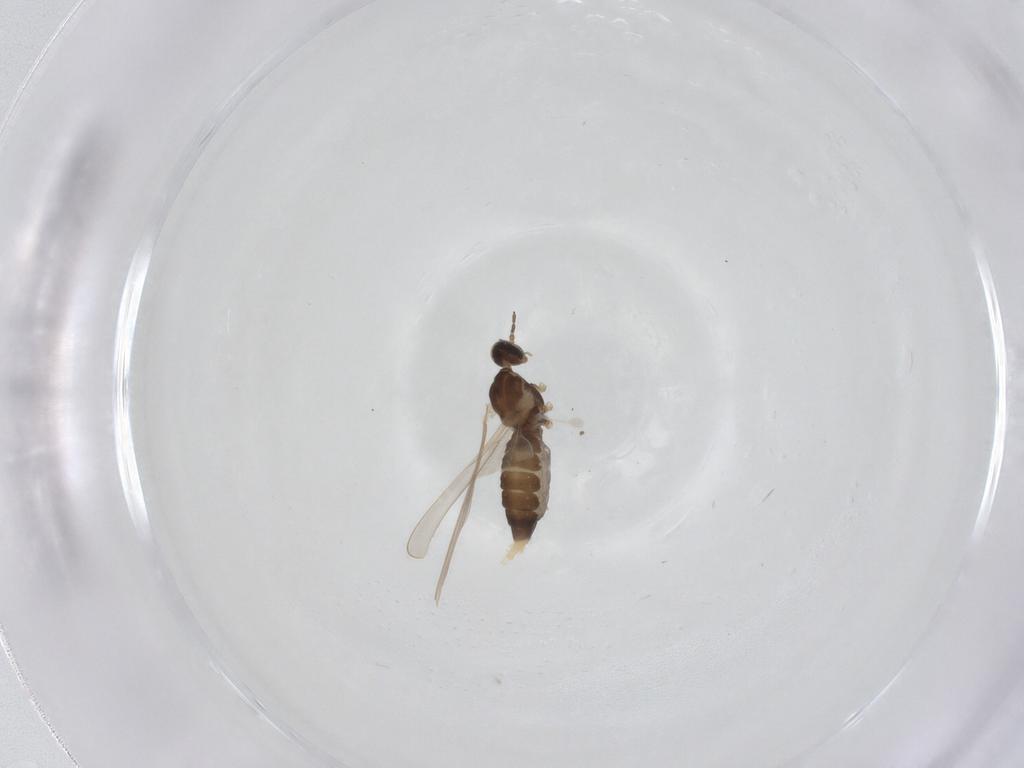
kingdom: Animalia
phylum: Arthropoda
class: Insecta
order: Diptera
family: Cecidomyiidae
